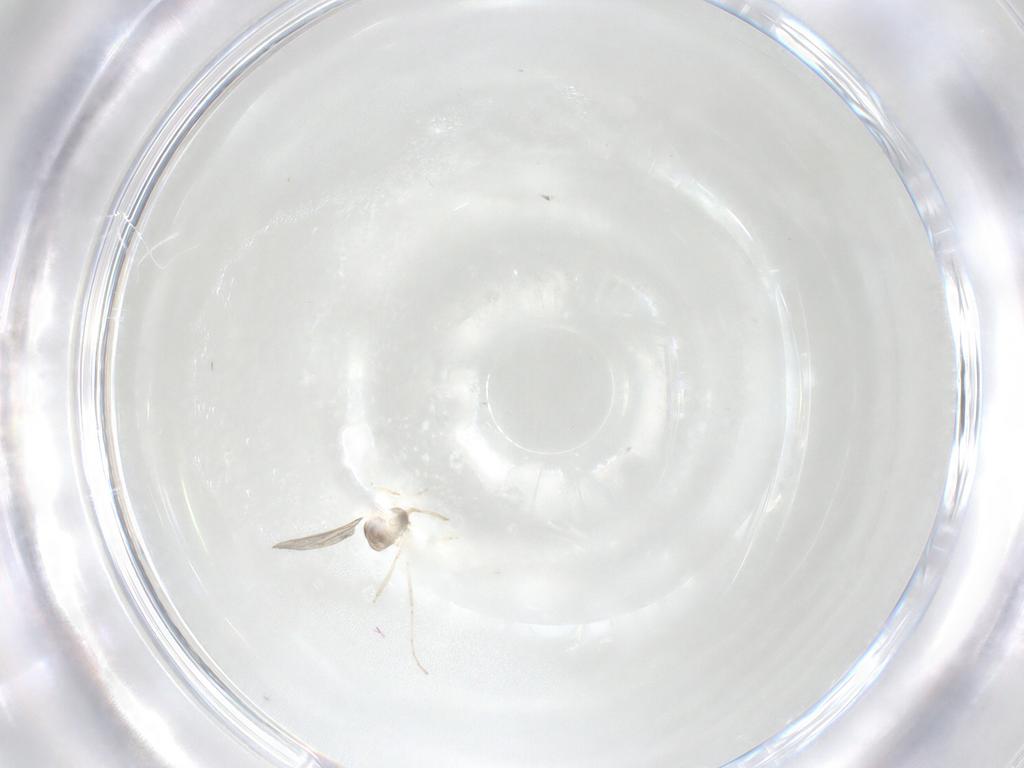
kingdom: Animalia
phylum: Arthropoda
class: Insecta
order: Diptera
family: Cecidomyiidae
